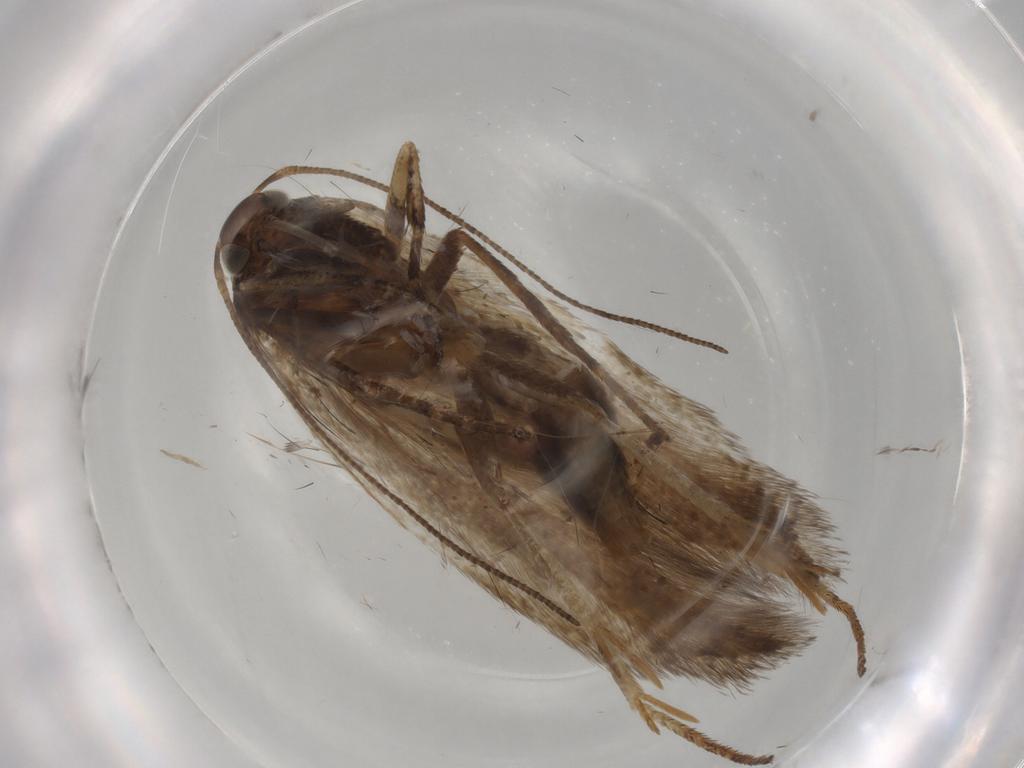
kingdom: Animalia
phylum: Arthropoda
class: Insecta
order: Lepidoptera
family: Gelechiidae
